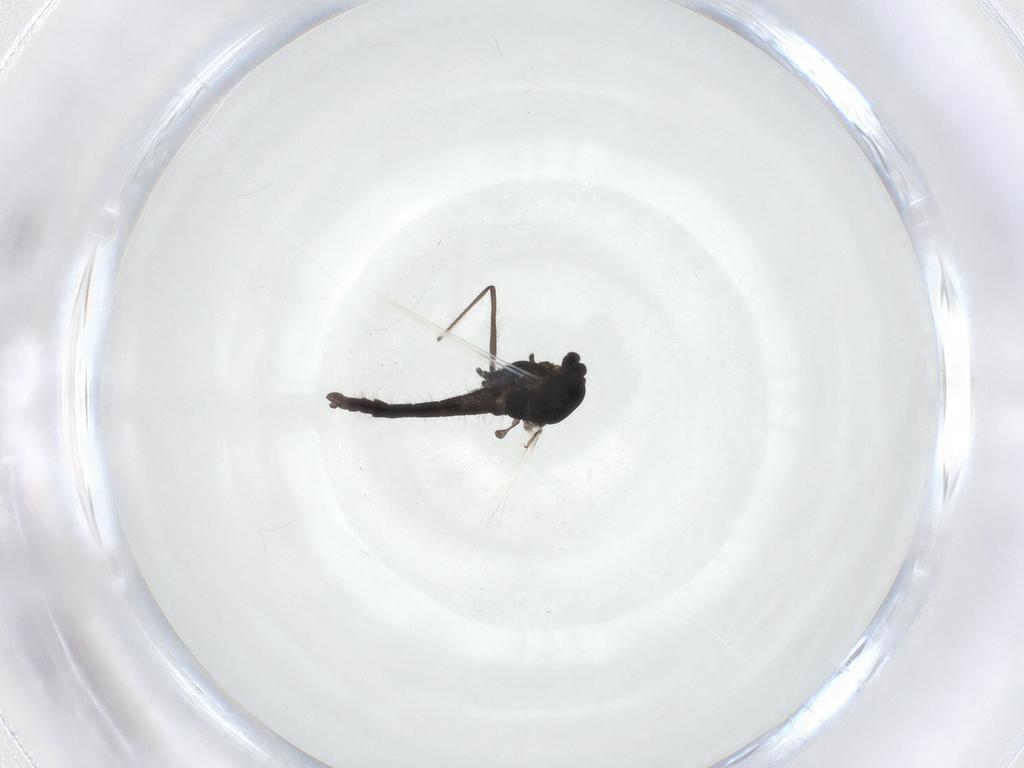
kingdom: Animalia
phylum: Arthropoda
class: Insecta
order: Diptera
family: Chironomidae
